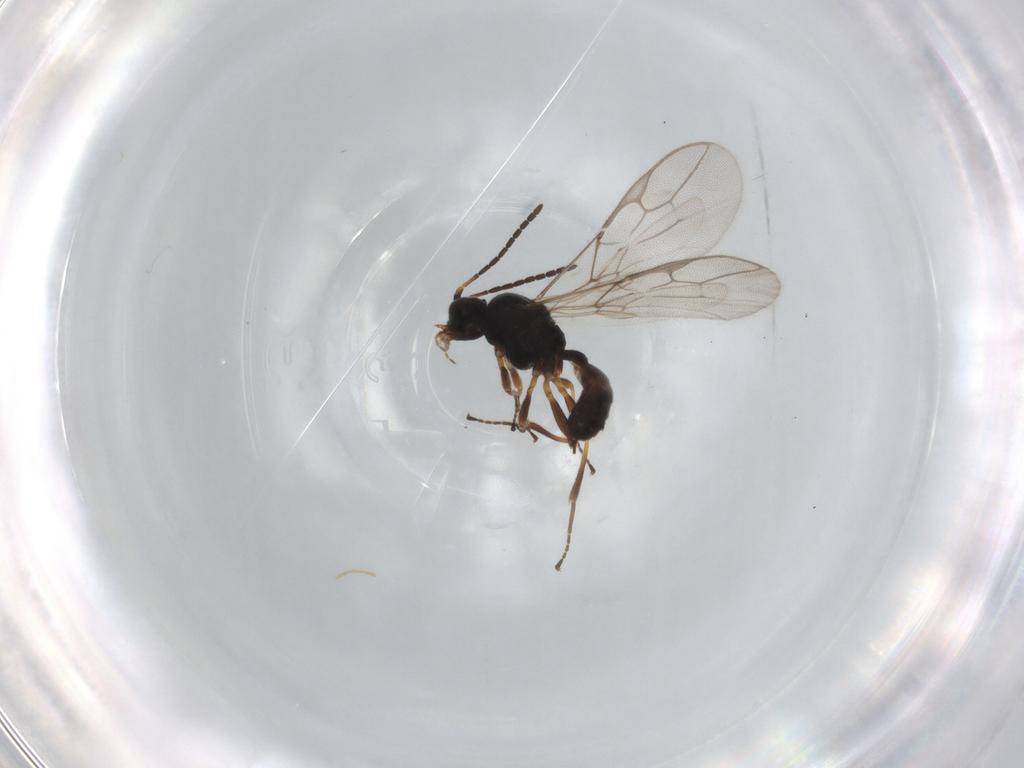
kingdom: Animalia
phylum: Arthropoda
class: Insecta
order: Hymenoptera
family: Braconidae
